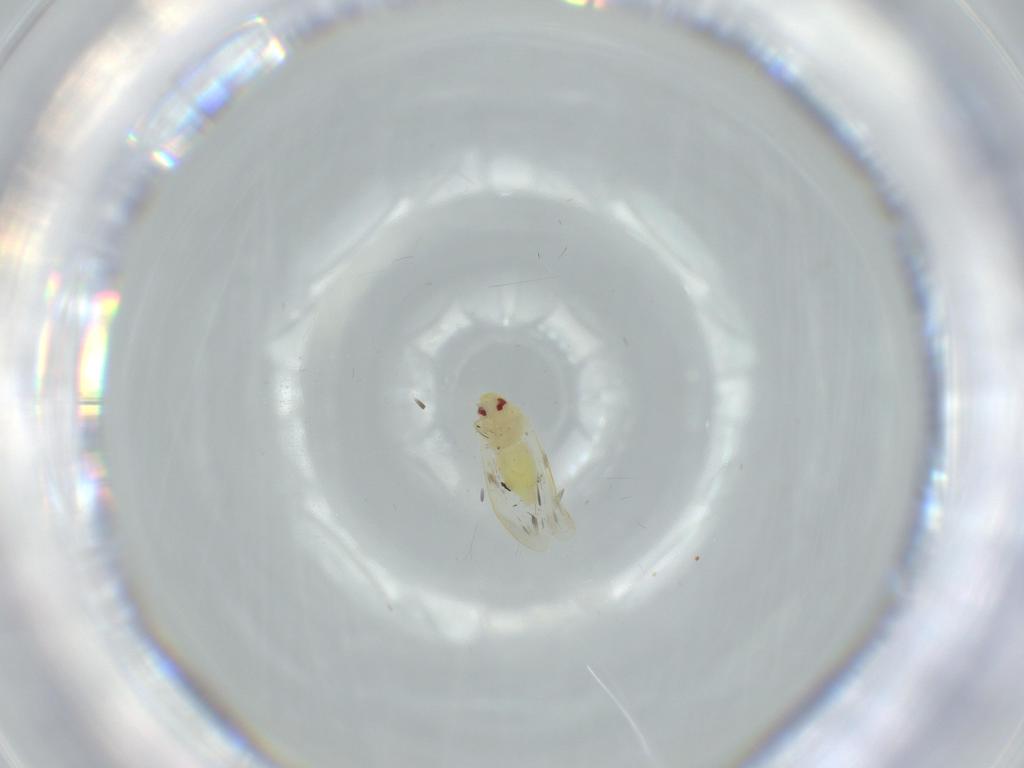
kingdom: Animalia
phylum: Arthropoda
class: Insecta
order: Hemiptera
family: Aleyrodidae
